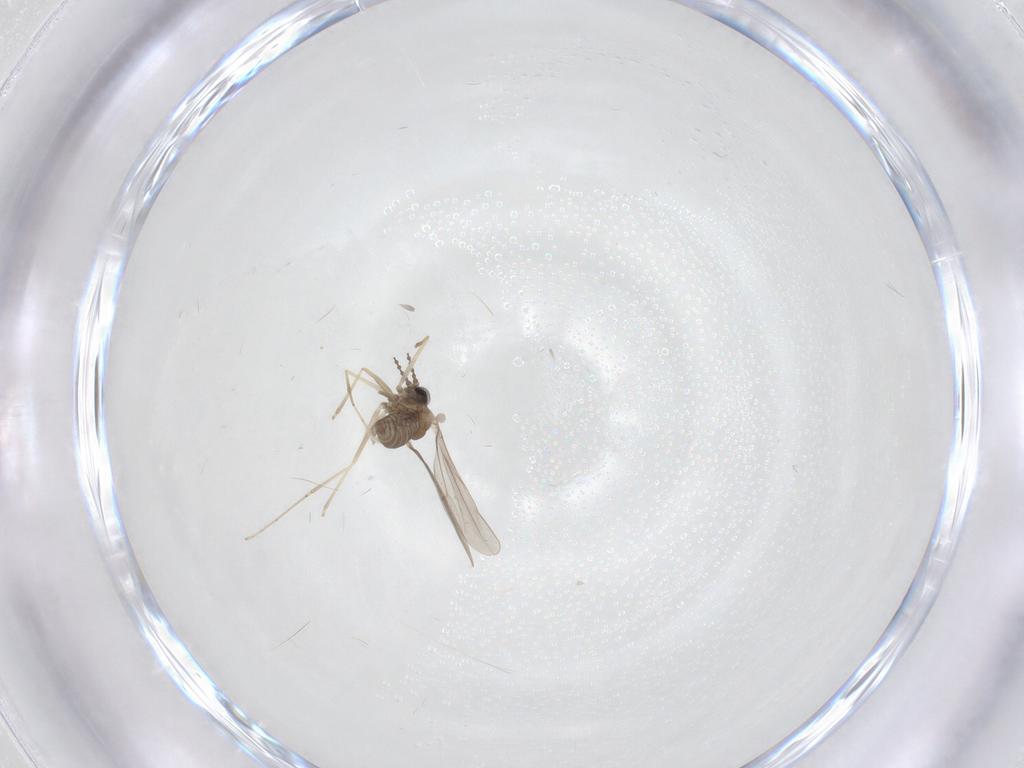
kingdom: Animalia
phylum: Arthropoda
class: Insecta
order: Diptera
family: Cecidomyiidae
